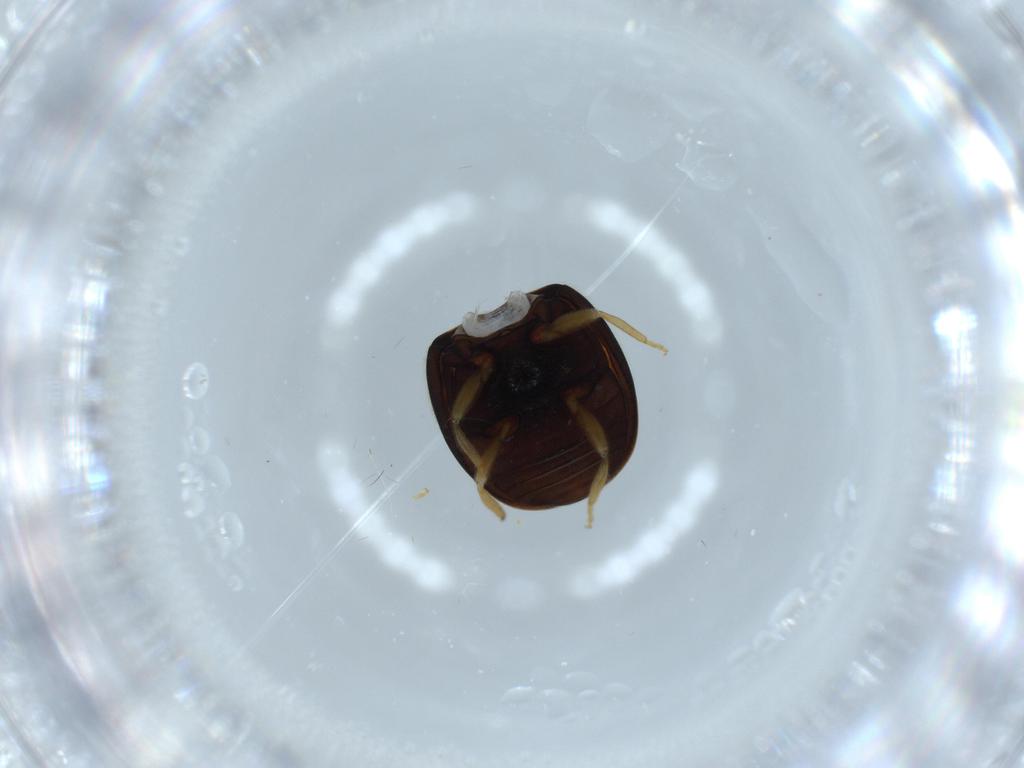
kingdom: Animalia
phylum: Arthropoda
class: Insecta
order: Coleoptera
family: Coccinellidae
